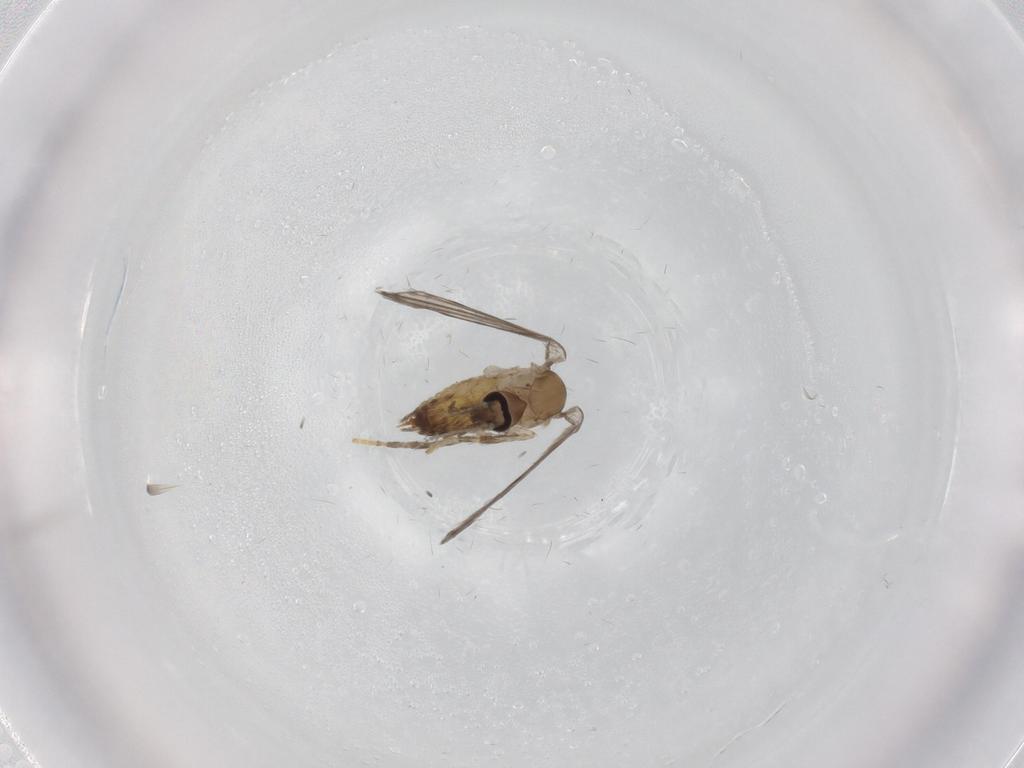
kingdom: Animalia
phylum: Arthropoda
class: Insecta
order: Diptera
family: Psychodidae
